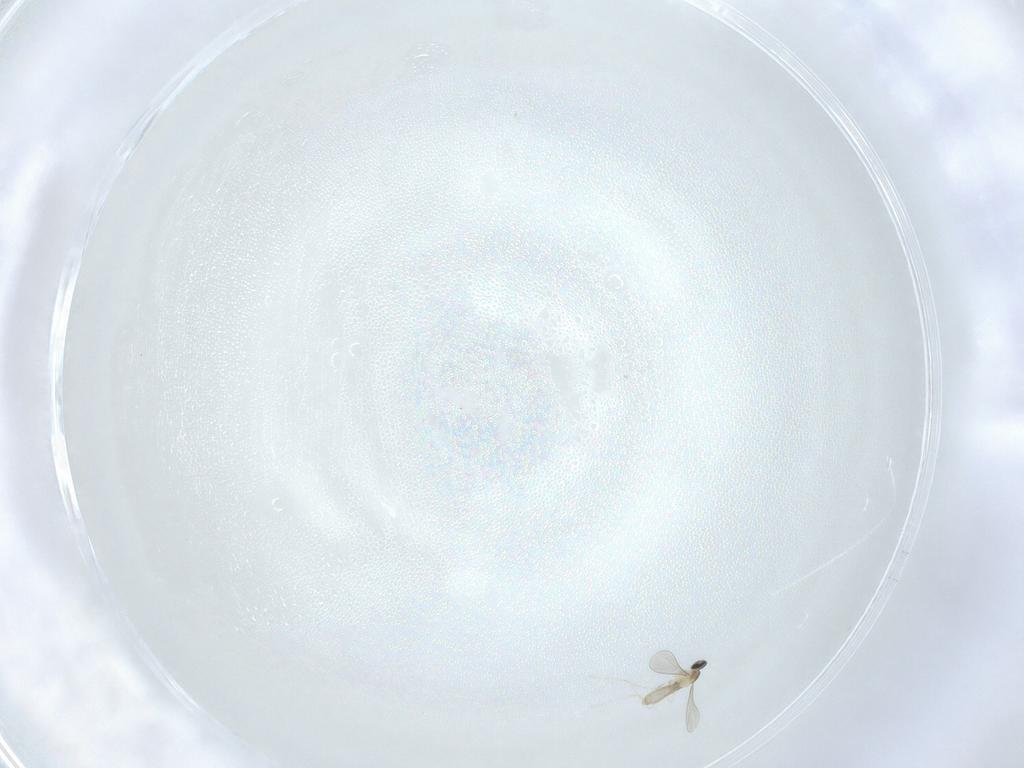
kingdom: Animalia
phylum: Arthropoda
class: Insecta
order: Diptera
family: Cecidomyiidae
